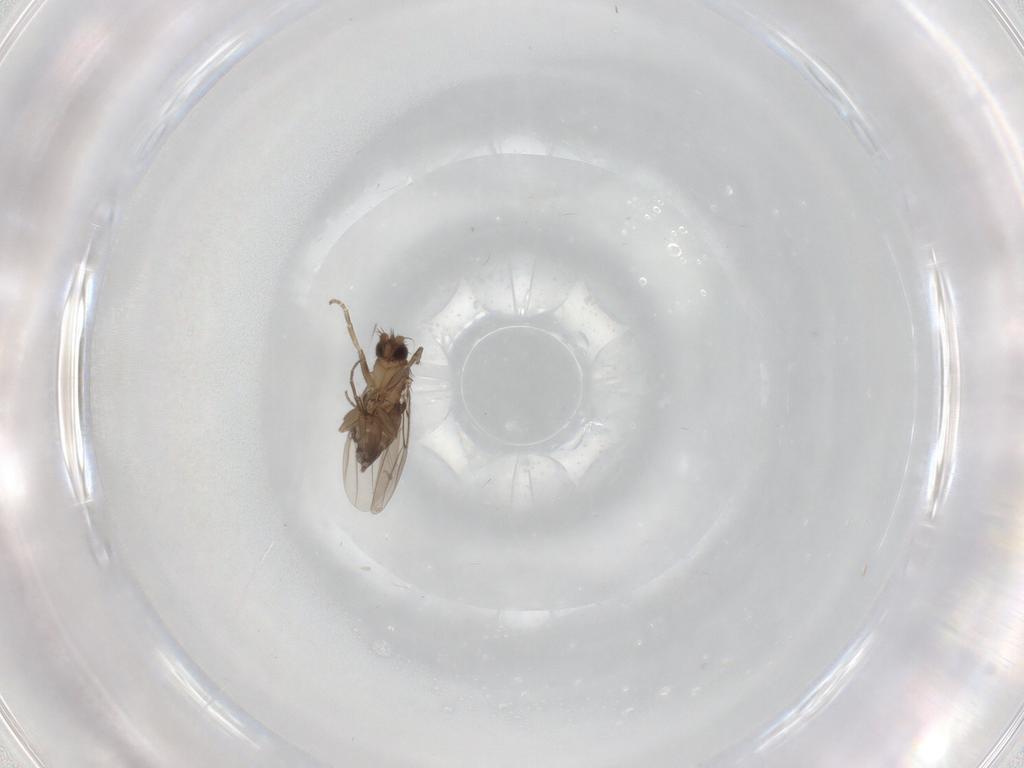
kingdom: Animalia
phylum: Arthropoda
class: Insecta
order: Diptera
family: Phoridae
